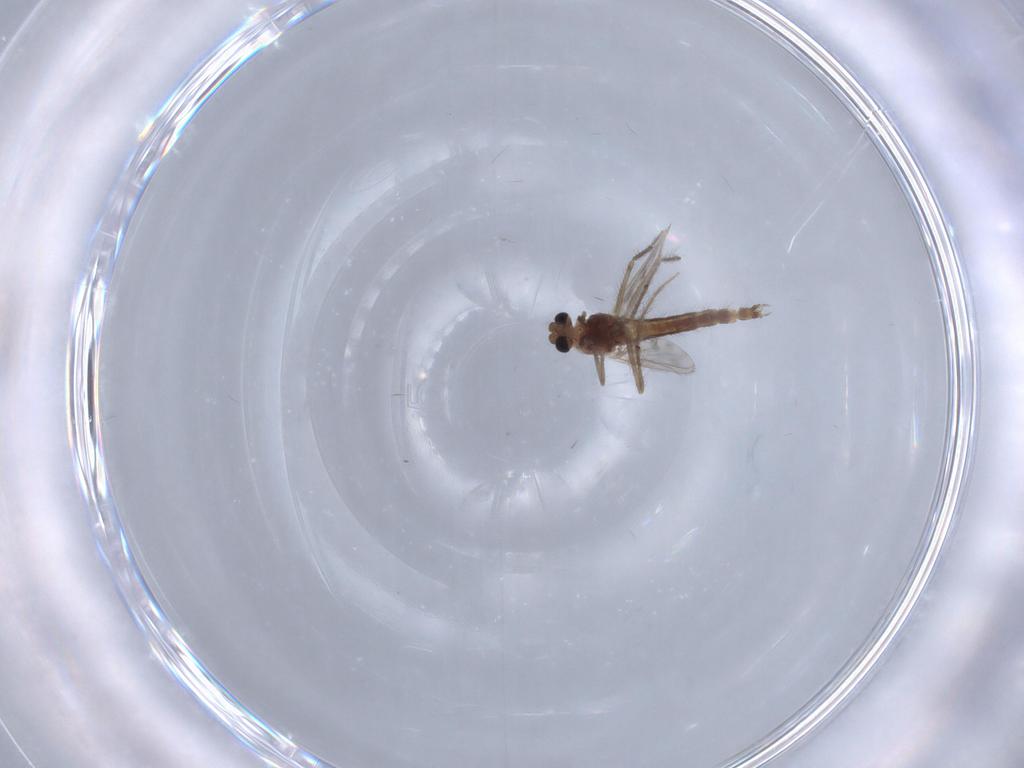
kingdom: Animalia
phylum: Arthropoda
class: Insecta
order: Diptera
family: Chironomidae
